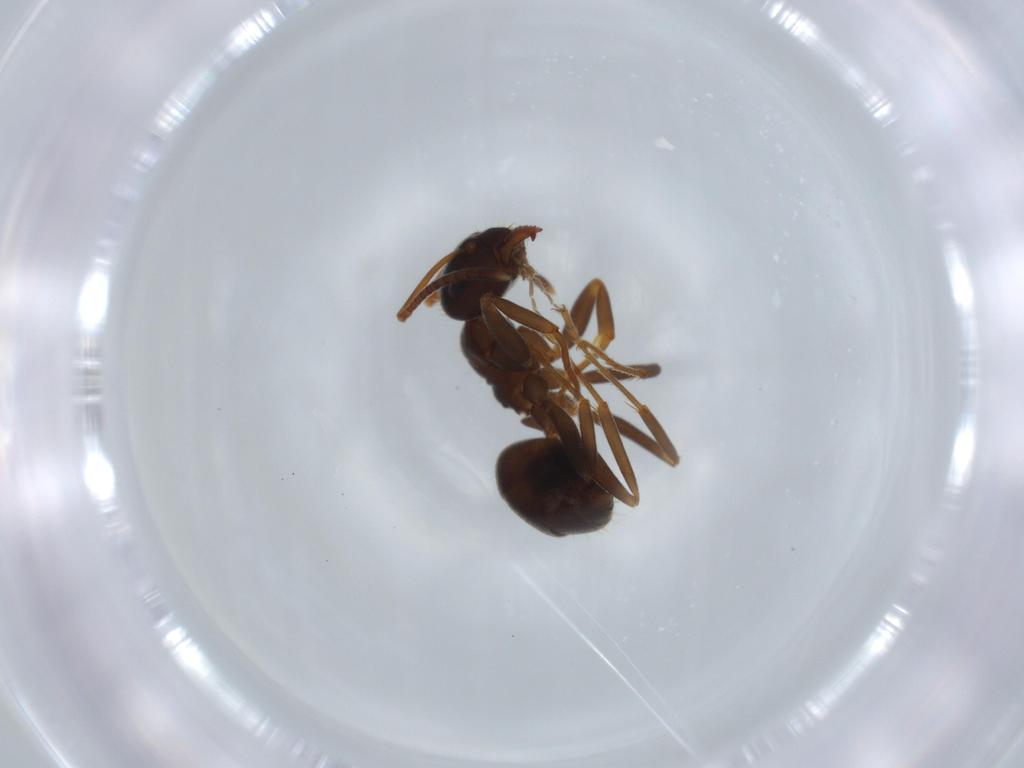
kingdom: Animalia
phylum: Arthropoda
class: Insecta
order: Hymenoptera
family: Formicidae
